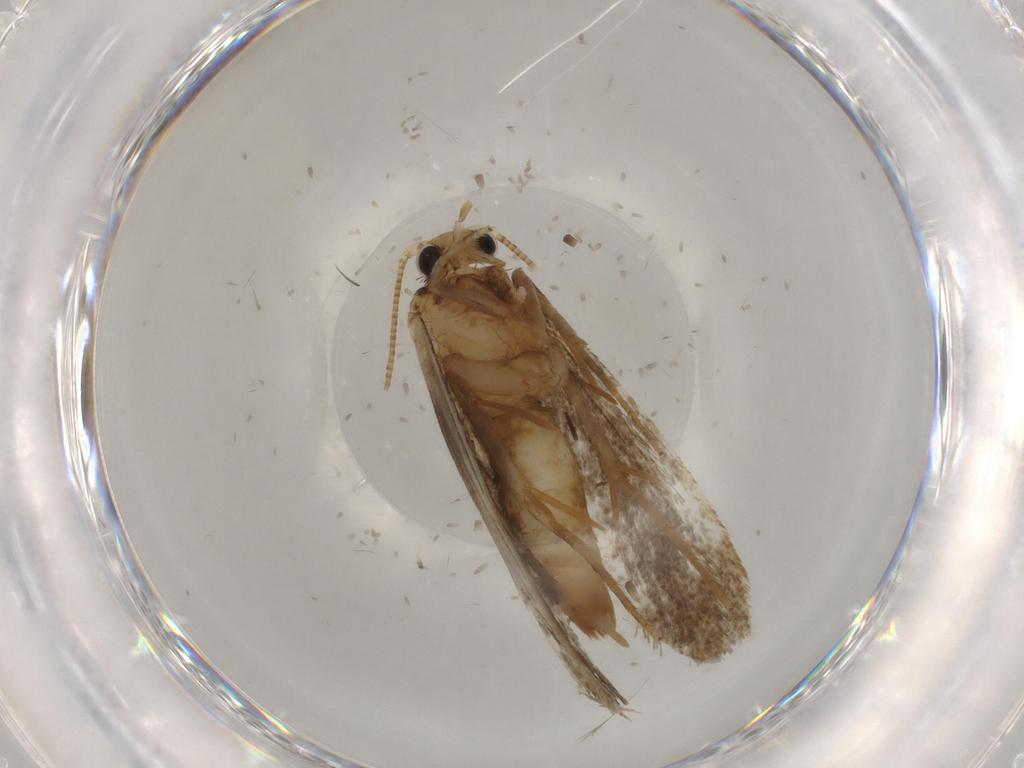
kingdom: Animalia
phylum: Arthropoda
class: Insecta
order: Lepidoptera
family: Tineidae
